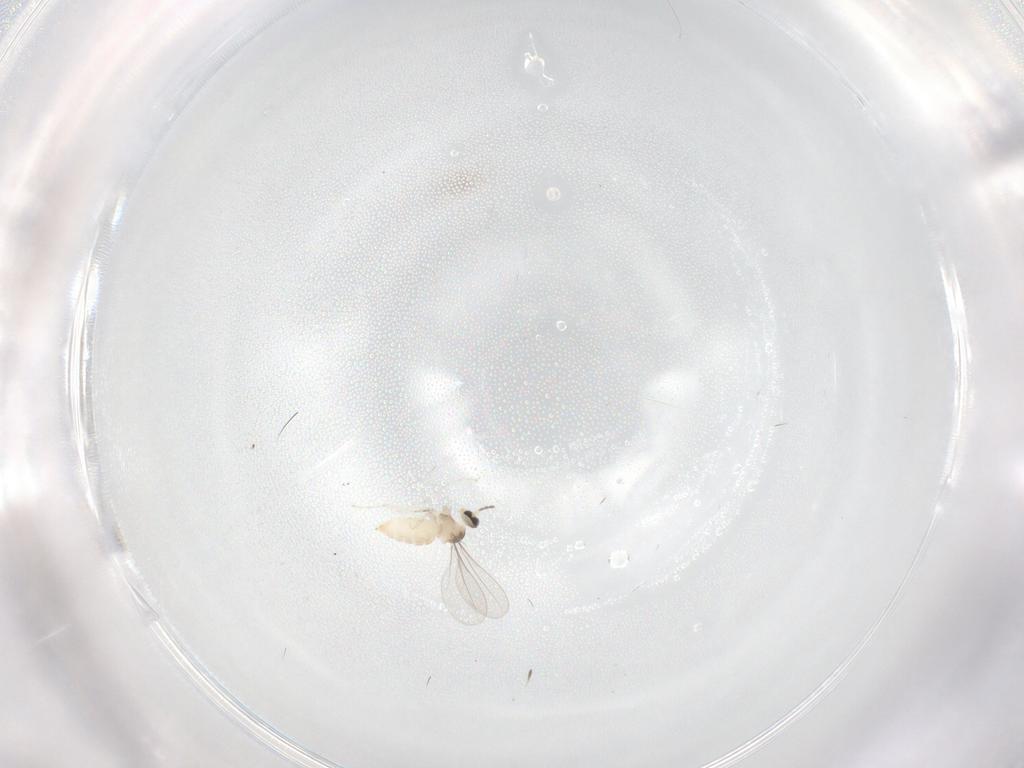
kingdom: Animalia
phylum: Arthropoda
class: Insecta
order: Diptera
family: Cecidomyiidae
